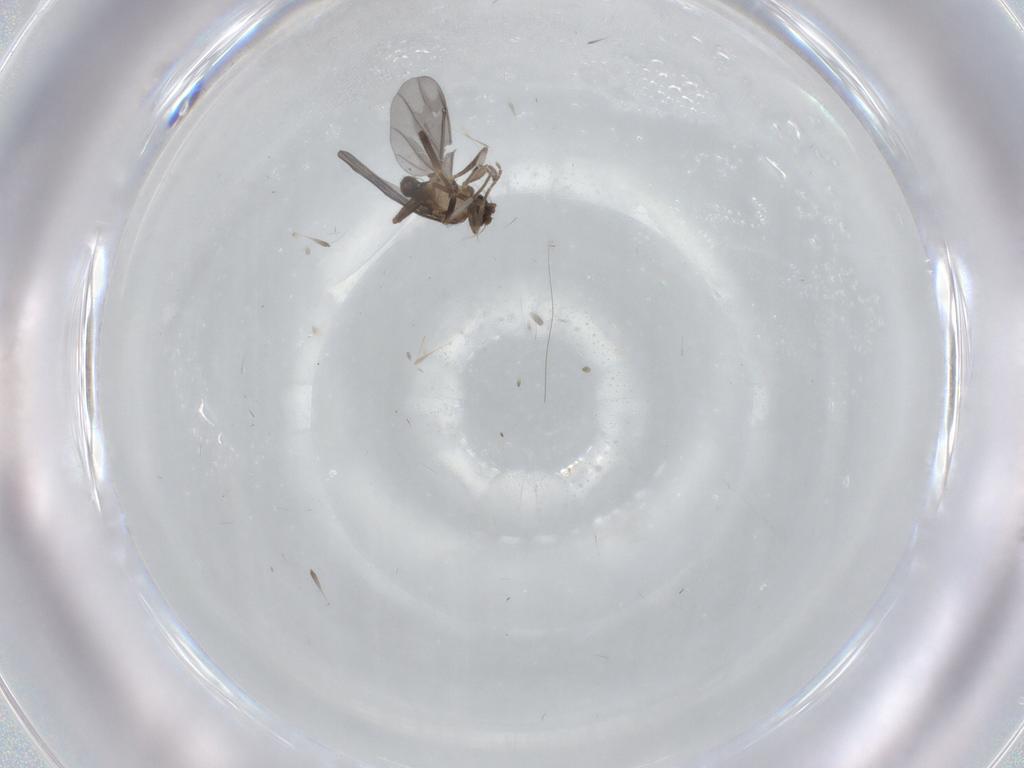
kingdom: Animalia
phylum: Arthropoda
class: Insecta
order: Diptera
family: Phoridae
